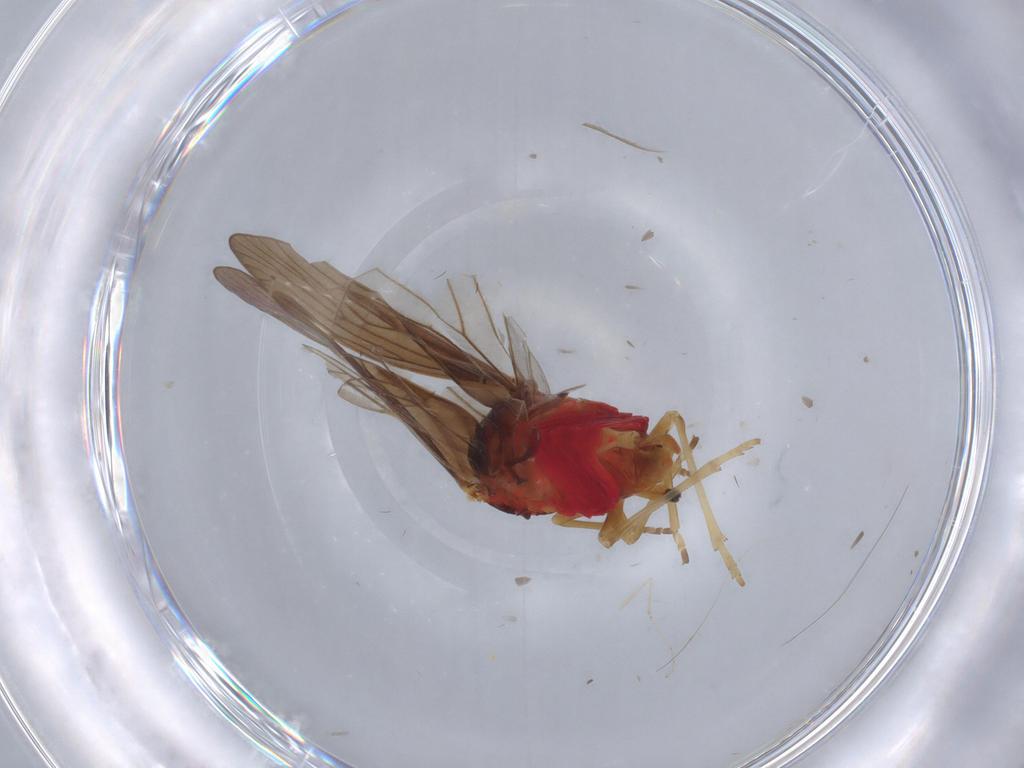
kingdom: Animalia
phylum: Arthropoda
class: Insecta
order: Hemiptera
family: Derbidae
